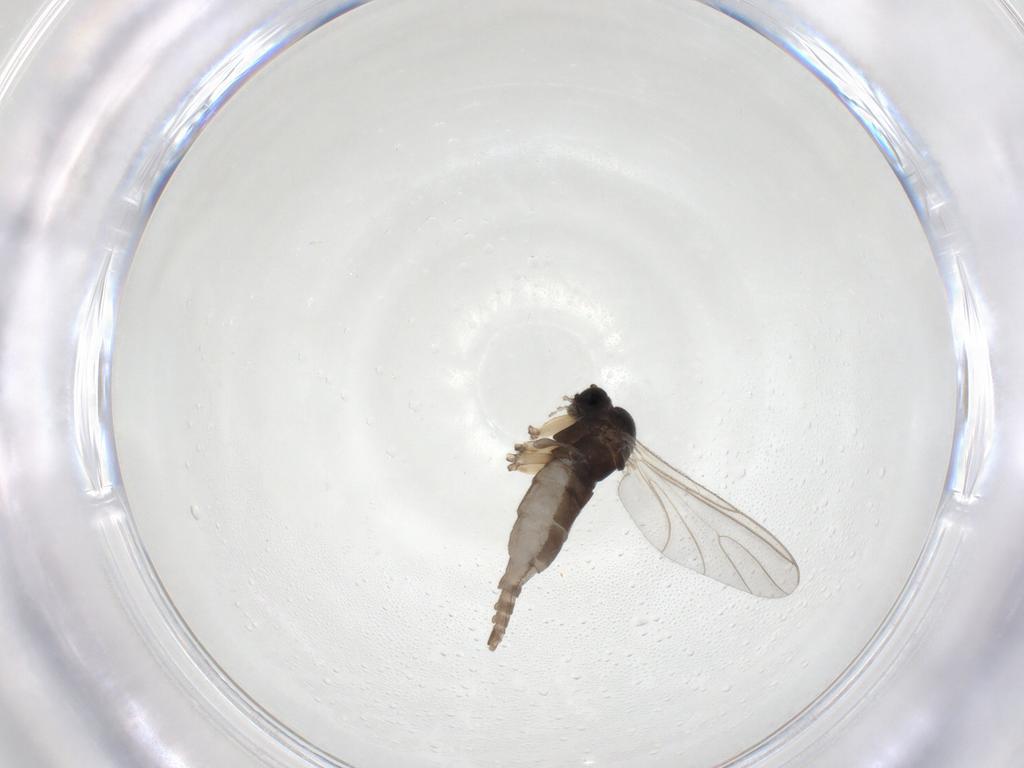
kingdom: Animalia
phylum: Arthropoda
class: Insecta
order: Diptera
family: Sciaridae
